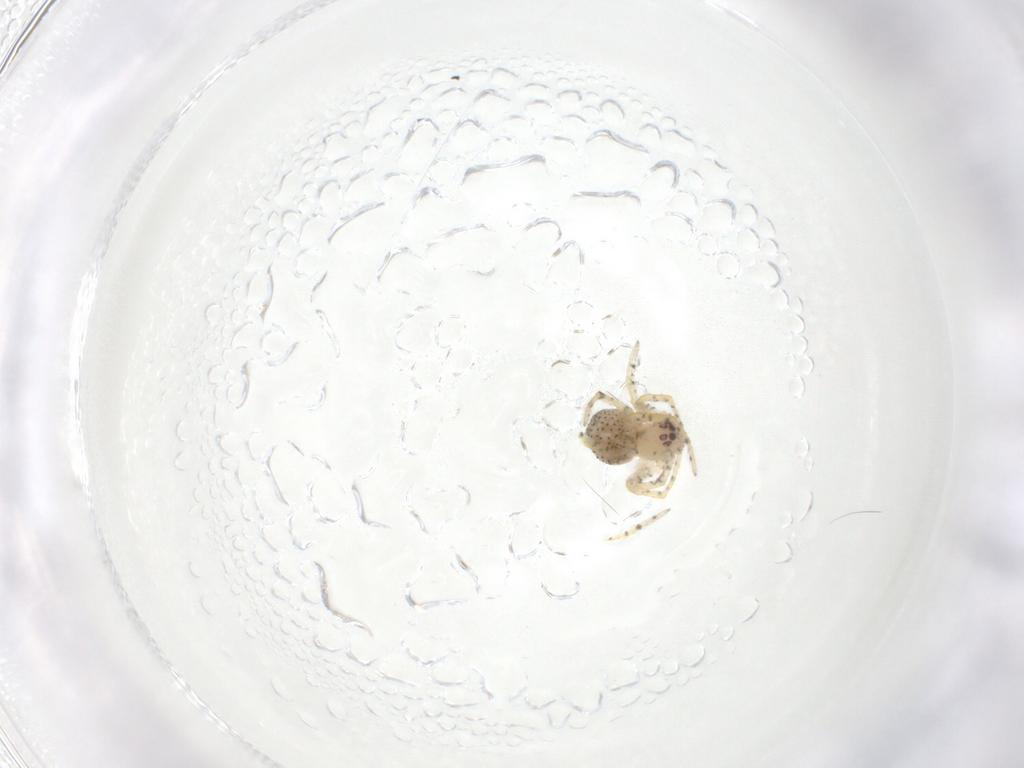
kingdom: Animalia
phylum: Arthropoda
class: Arachnida
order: Araneae
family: Theridiidae
